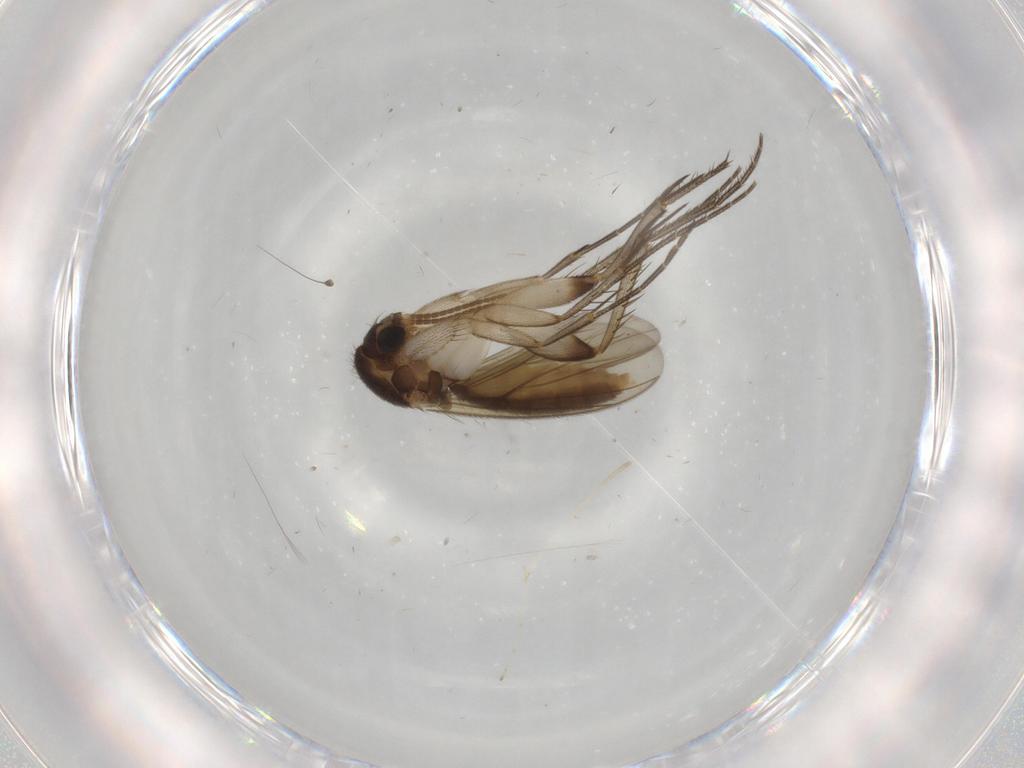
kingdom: Animalia
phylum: Arthropoda
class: Insecta
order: Diptera
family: Mycetophilidae
